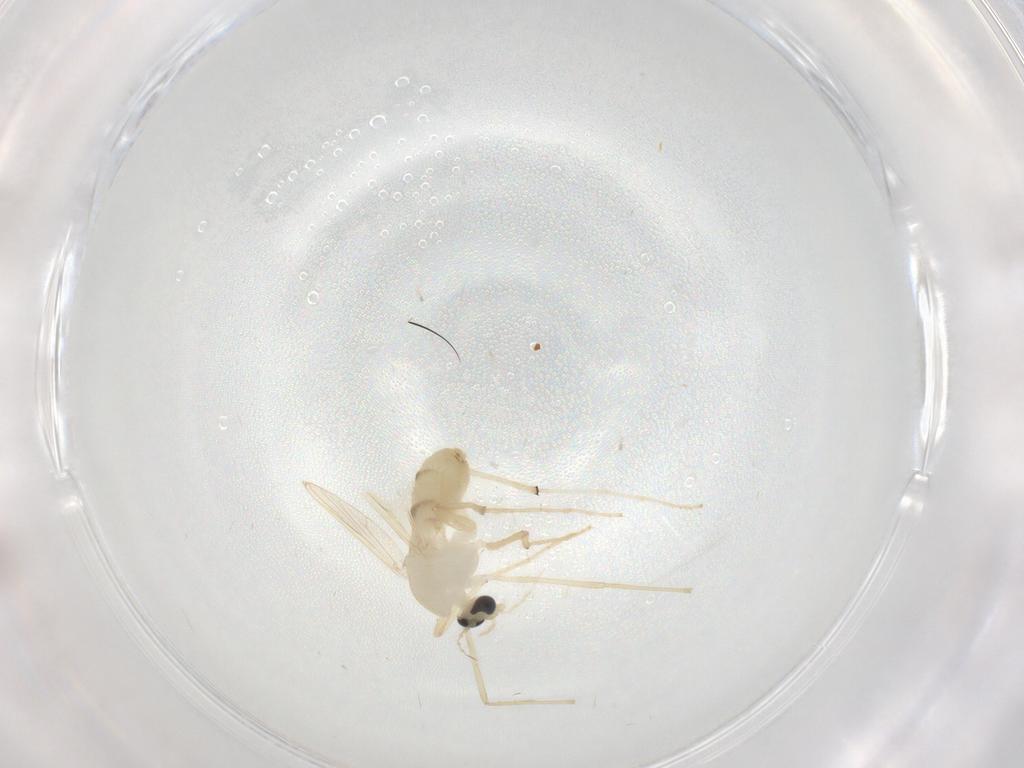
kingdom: Animalia
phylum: Arthropoda
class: Insecta
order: Diptera
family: Chironomidae
